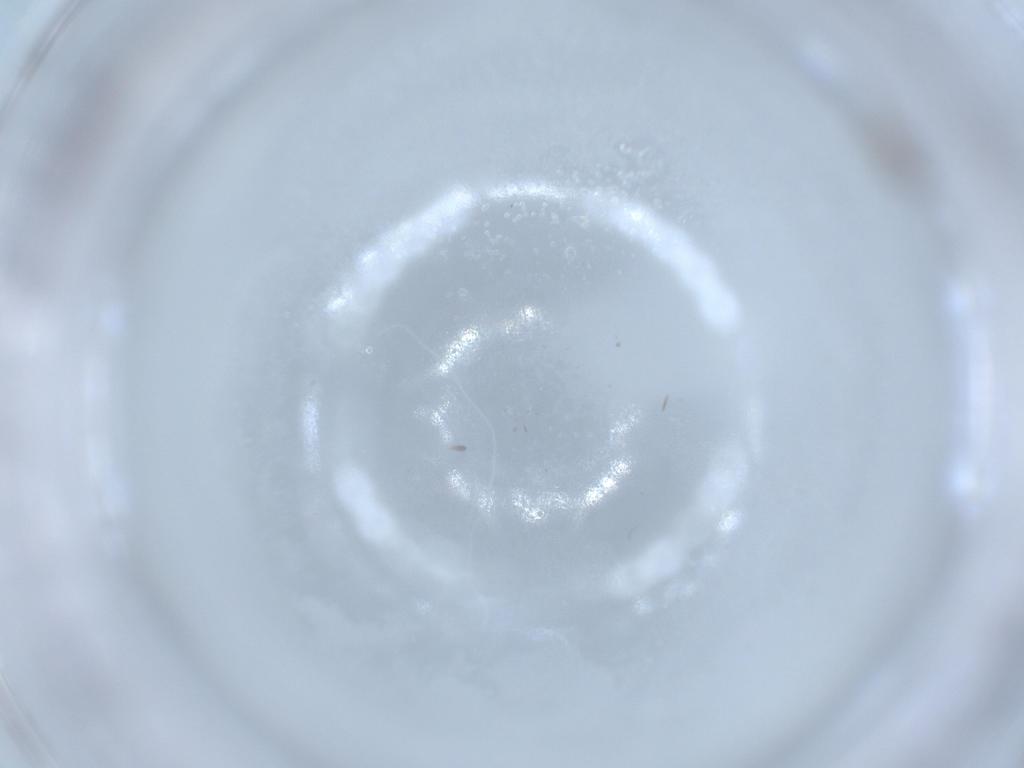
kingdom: Animalia
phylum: Arthropoda
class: Insecta
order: Diptera
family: Cecidomyiidae
